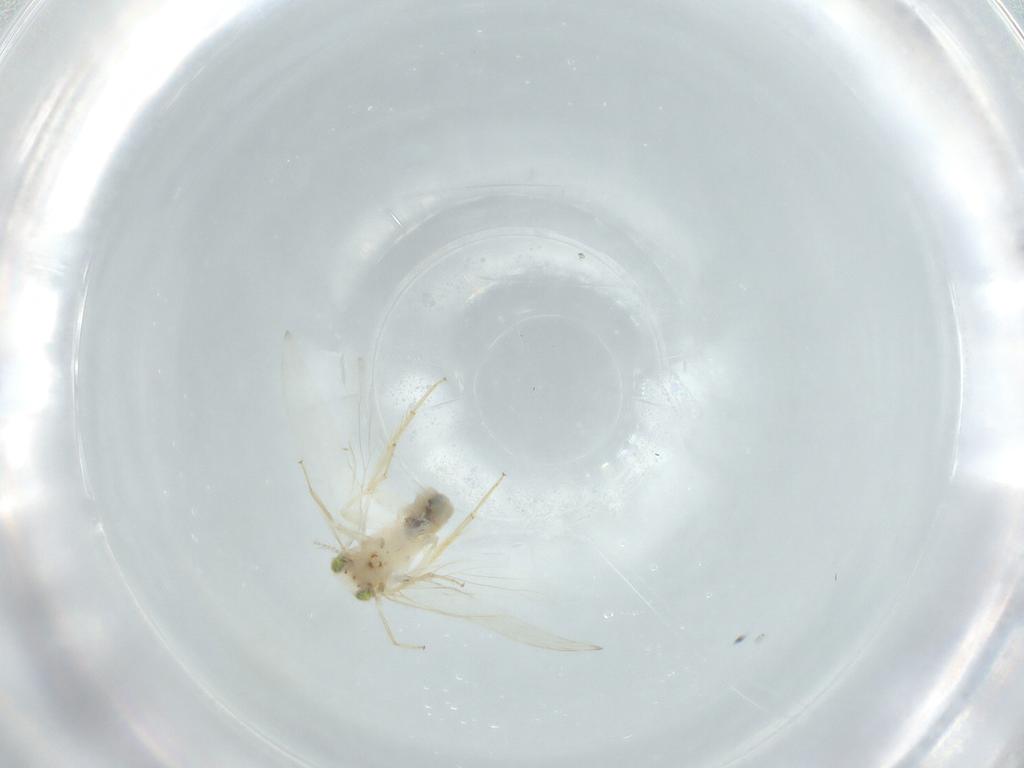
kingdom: Animalia
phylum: Arthropoda
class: Insecta
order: Psocodea
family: Lepidopsocidae
